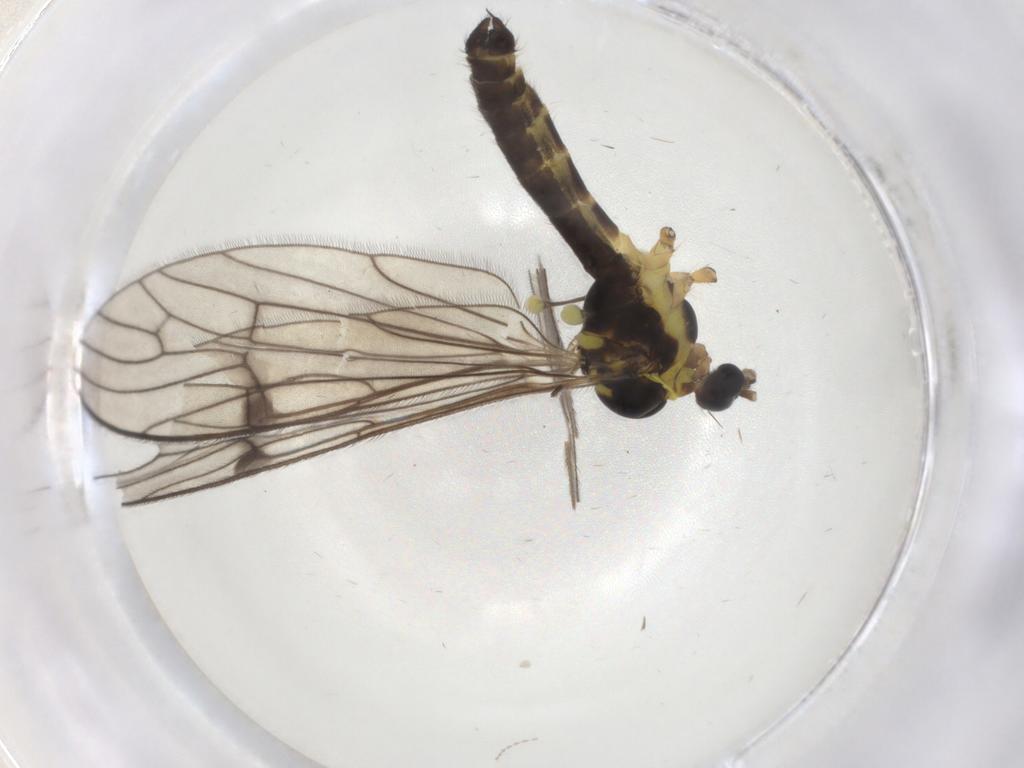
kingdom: Animalia
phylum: Arthropoda
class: Insecta
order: Diptera
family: Limoniidae
